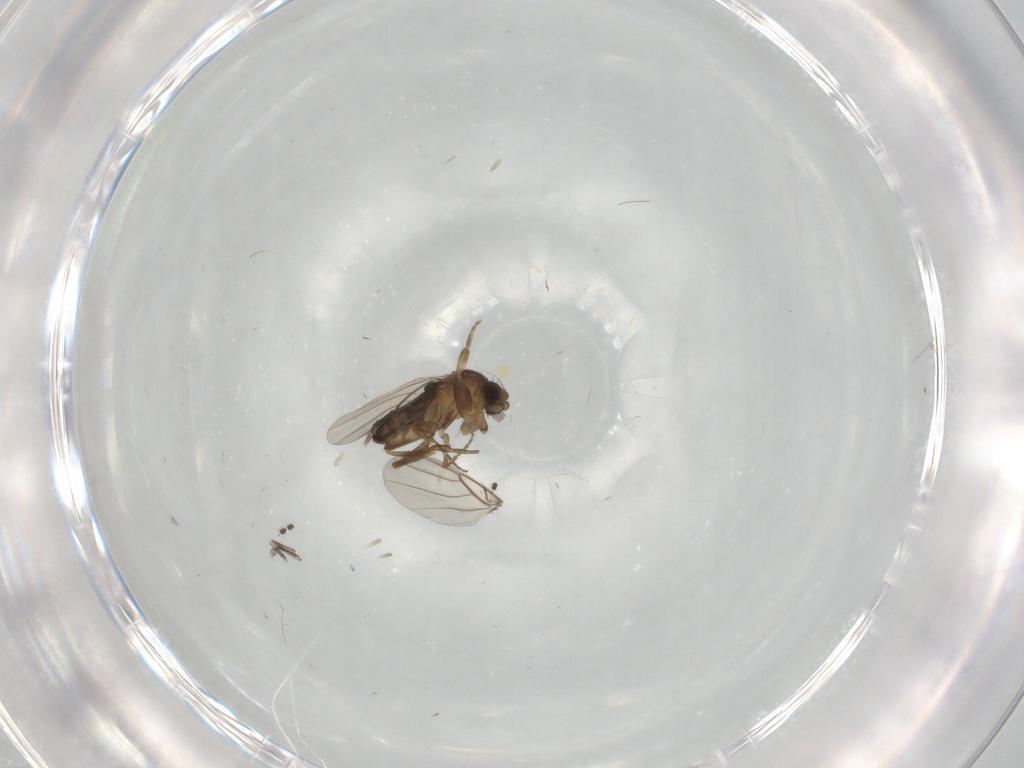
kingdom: Animalia
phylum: Arthropoda
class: Insecta
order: Diptera
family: Phoridae
